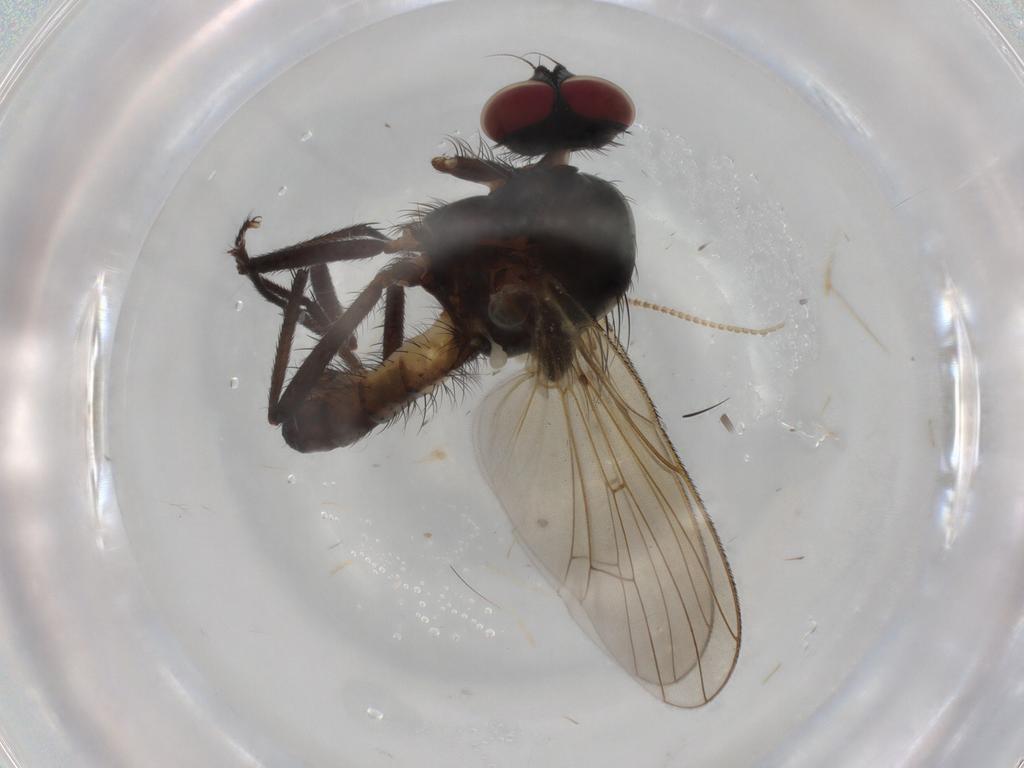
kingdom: Animalia
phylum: Arthropoda
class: Insecta
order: Diptera
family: Anthomyiidae
